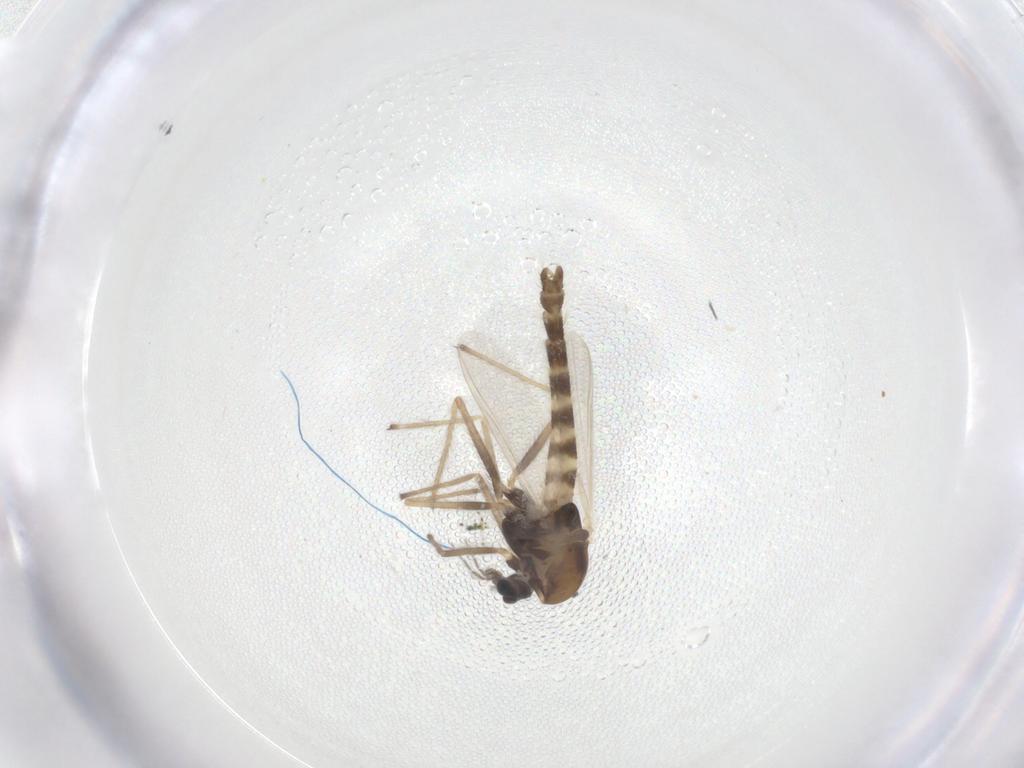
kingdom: Animalia
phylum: Arthropoda
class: Insecta
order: Diptera
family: Chironomidae
